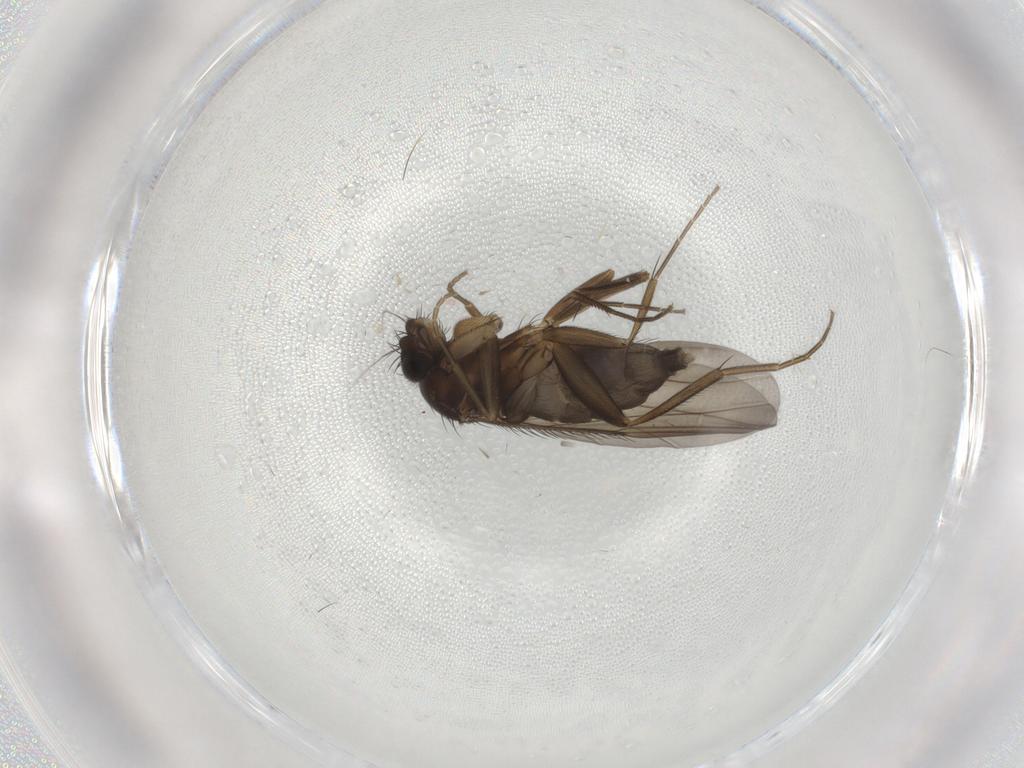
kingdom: Animalia
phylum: Arthropoda
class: Insecta
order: Diptera
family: Phoridae
